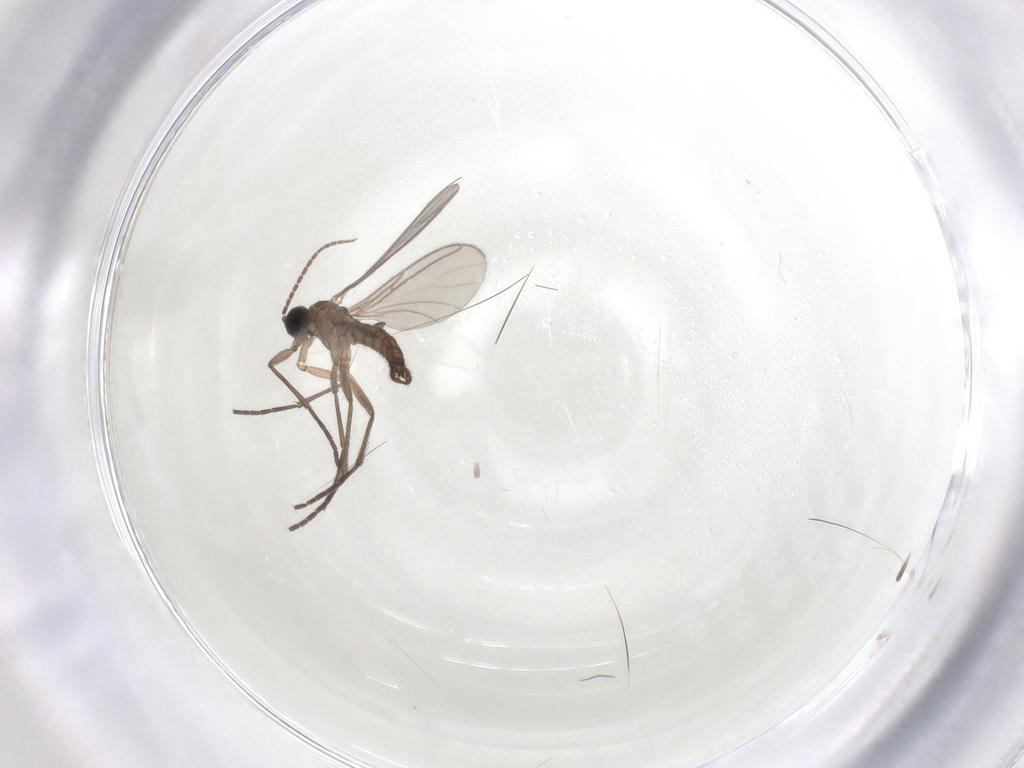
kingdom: Animalia
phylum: Arthropoda
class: Insecta
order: Diptera
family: Sciaridae
